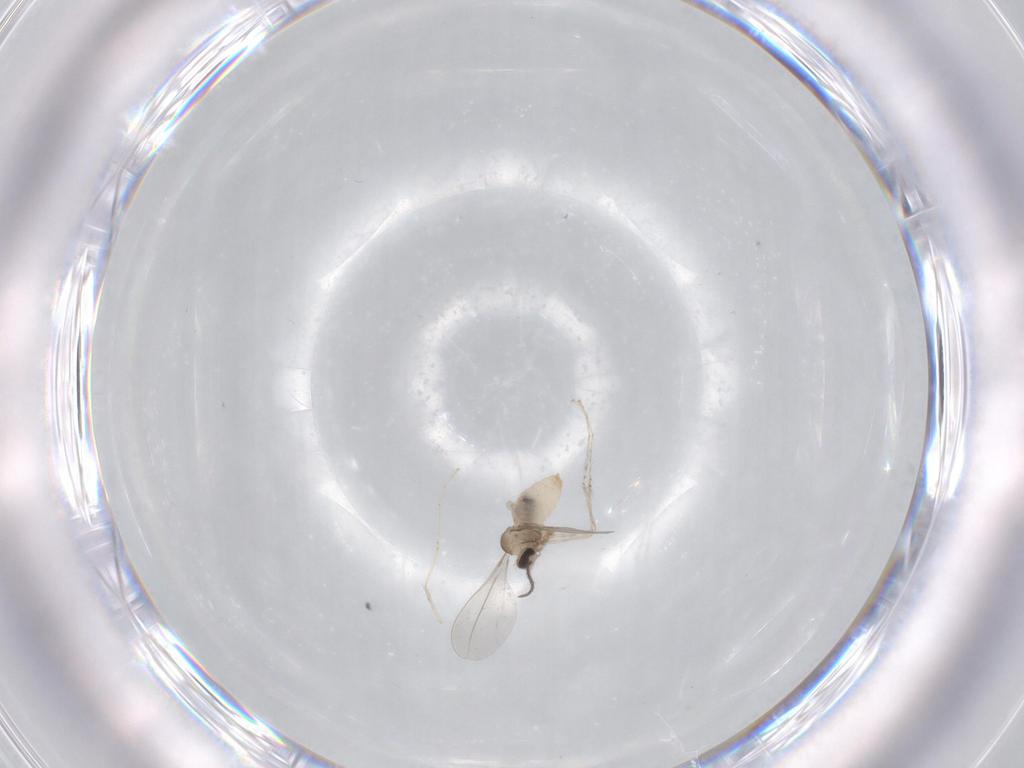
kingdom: Animalia
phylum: Arthropoda
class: Insecta
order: Diptera
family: Cecidomyiidae
